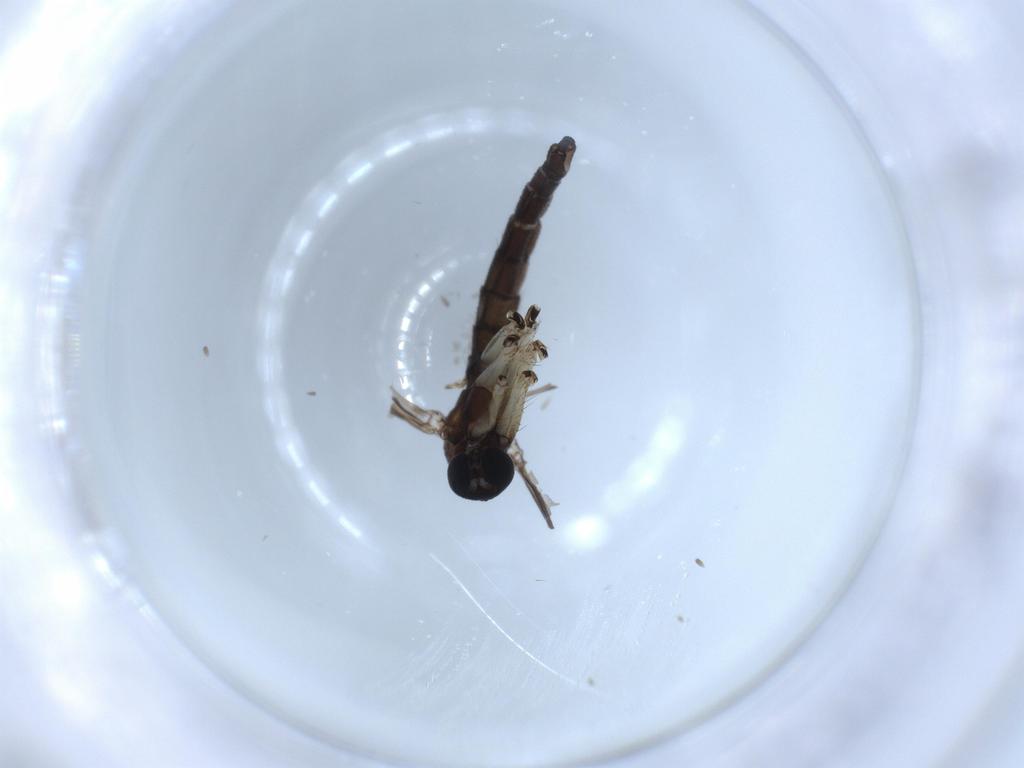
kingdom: Animalia
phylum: Arthropoda
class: Insecta
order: Diptera
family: Sciaridae
